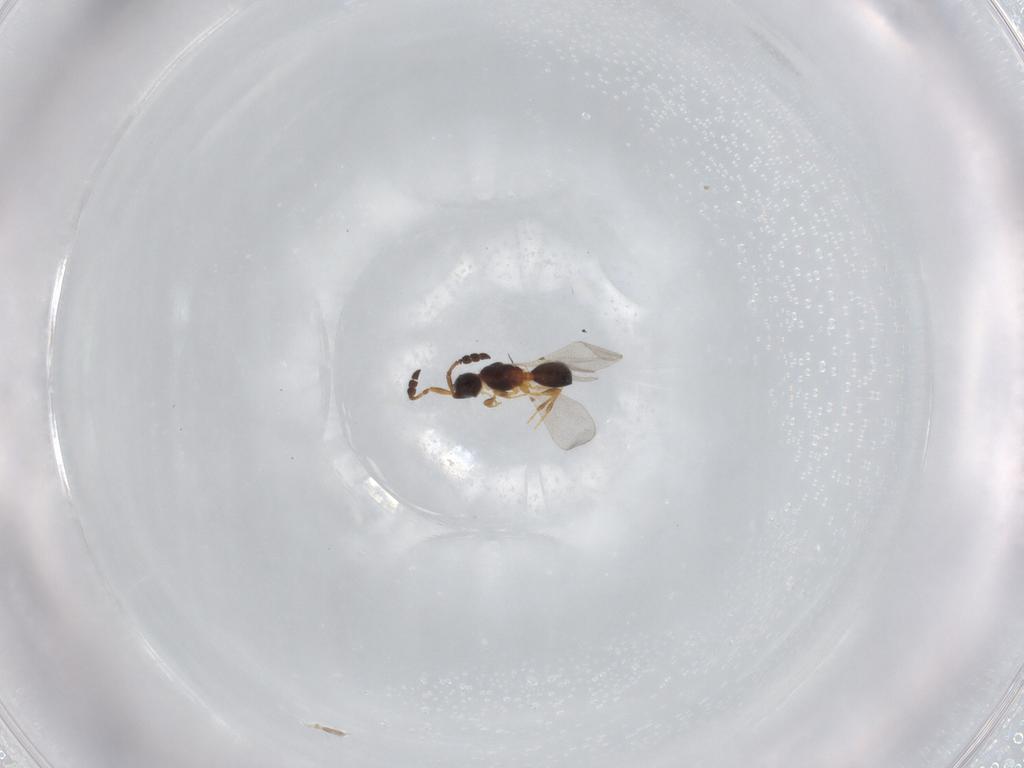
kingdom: Animalia
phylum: Arthropoda
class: Insecta
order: Hymenoptera
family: Diapriidae
